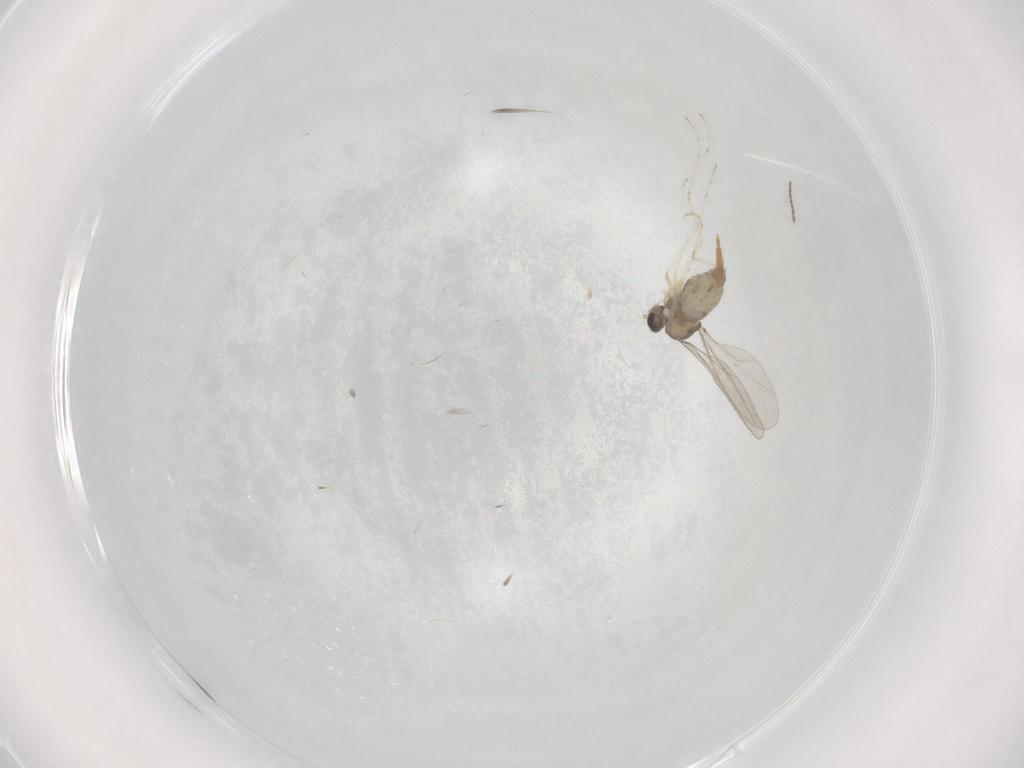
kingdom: Animalia
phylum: Arthropoda
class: Insecta
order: Diptera
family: Cecidomyiidae
